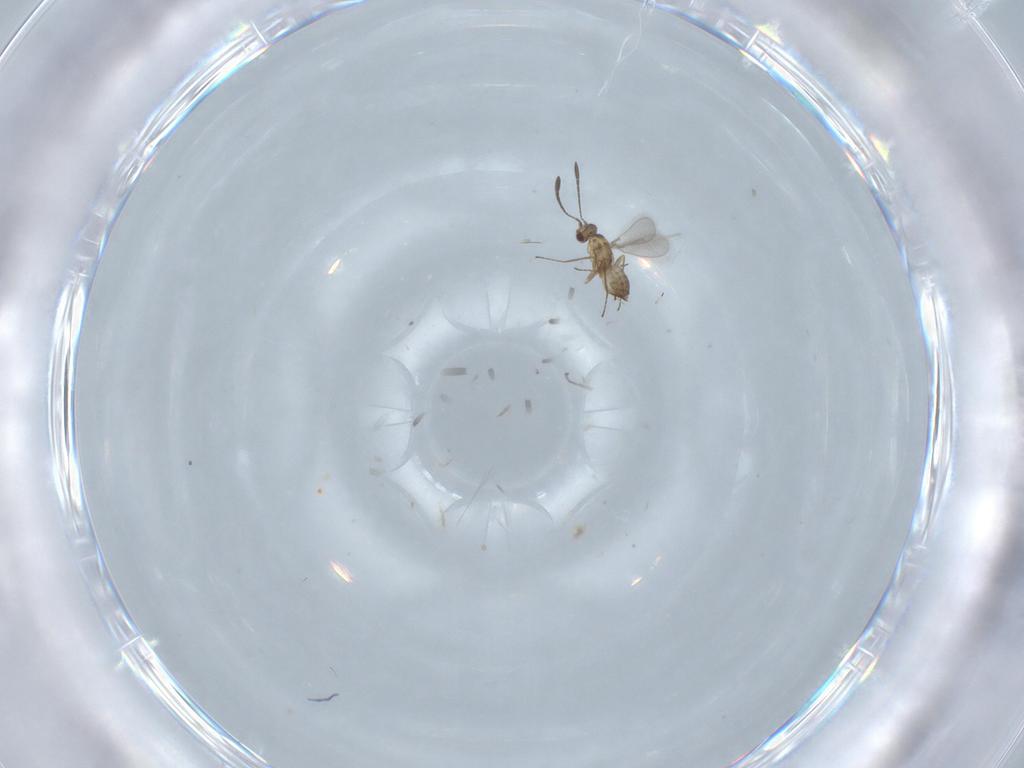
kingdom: Animalia
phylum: Arthropoda
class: Insecta
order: Hymenoptera
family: Mymaridae
